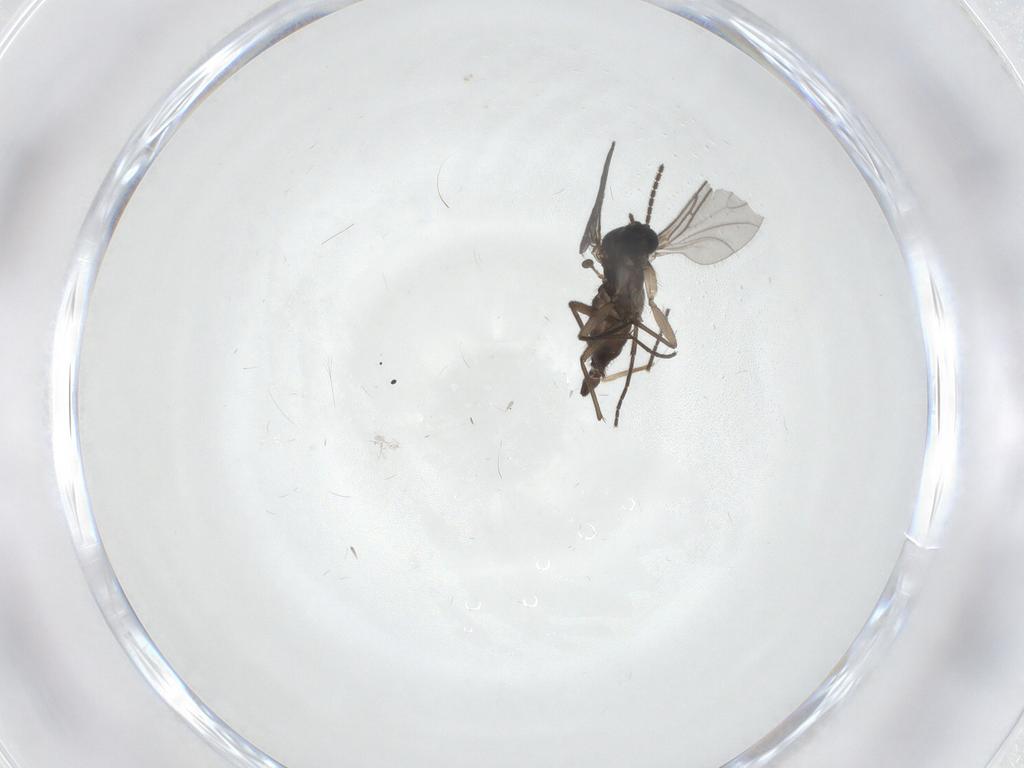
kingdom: Animalia
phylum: Arthropoda
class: Insecta
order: Diptera
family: Sciaridae
